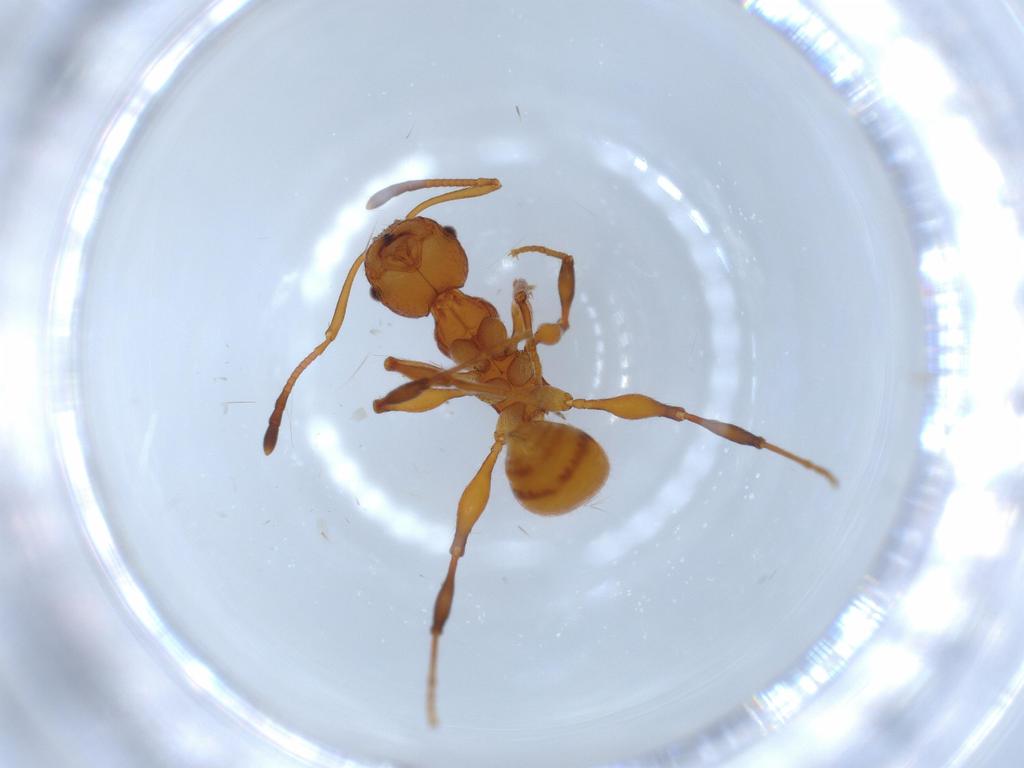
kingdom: Animalia
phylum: Arthropoda
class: Insecta
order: Hymenoptera
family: Formicidae
